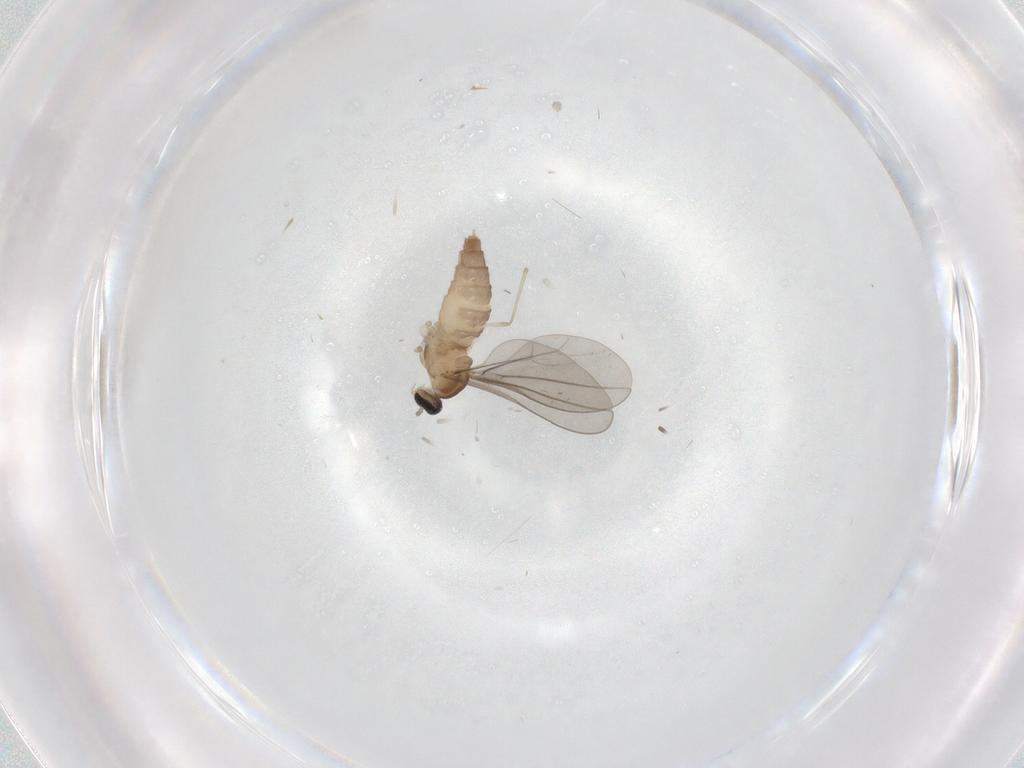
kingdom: Animalia
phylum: Arthropoda
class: Insecta
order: Diptera
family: Cecidomyiidae
